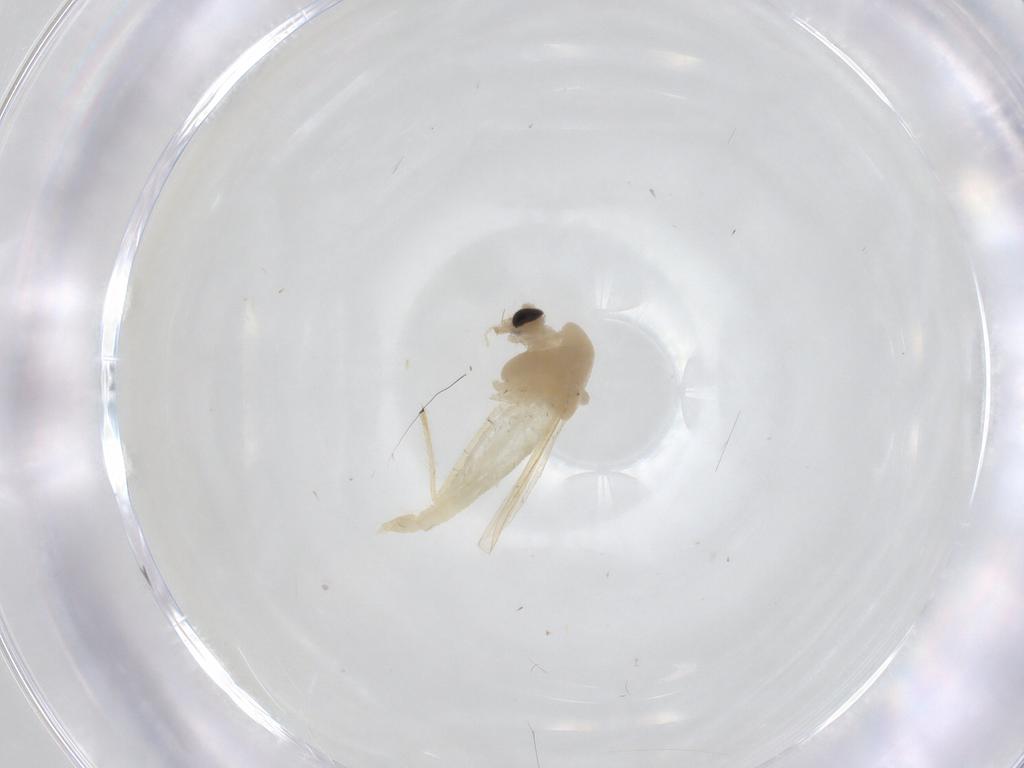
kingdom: Animalia
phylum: Arthropoda
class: Insecta
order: Diptera
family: Chironomidae
